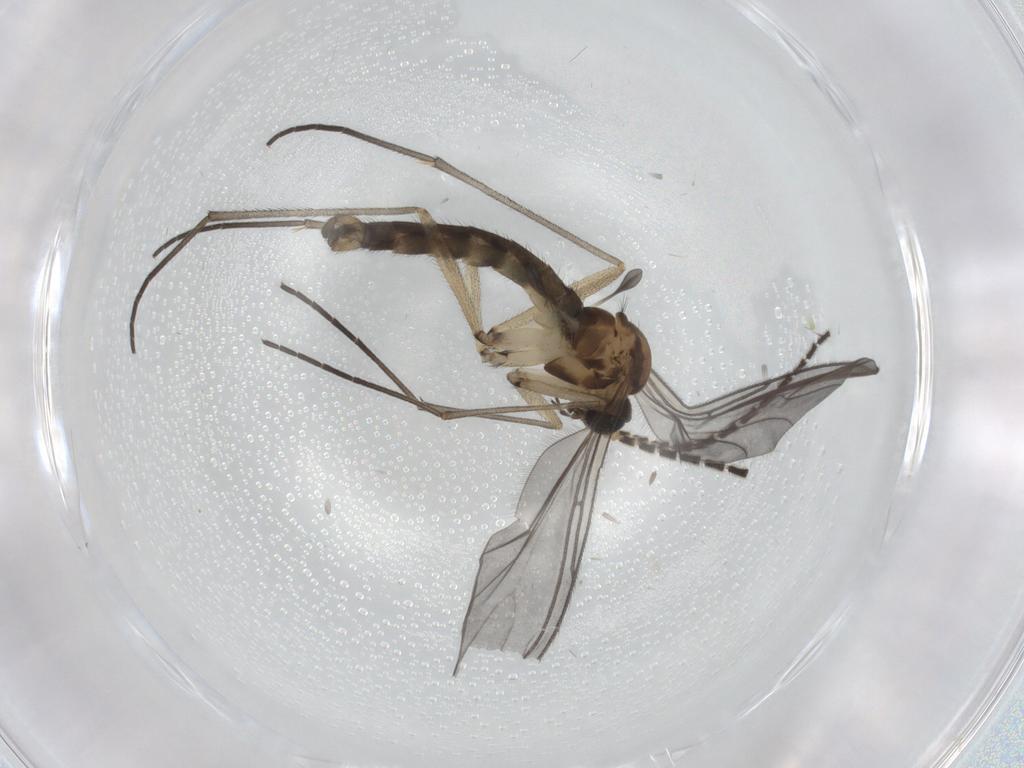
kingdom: Animalia
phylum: Arthropoda
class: Insecta
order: Diptera
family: Sciaridae
